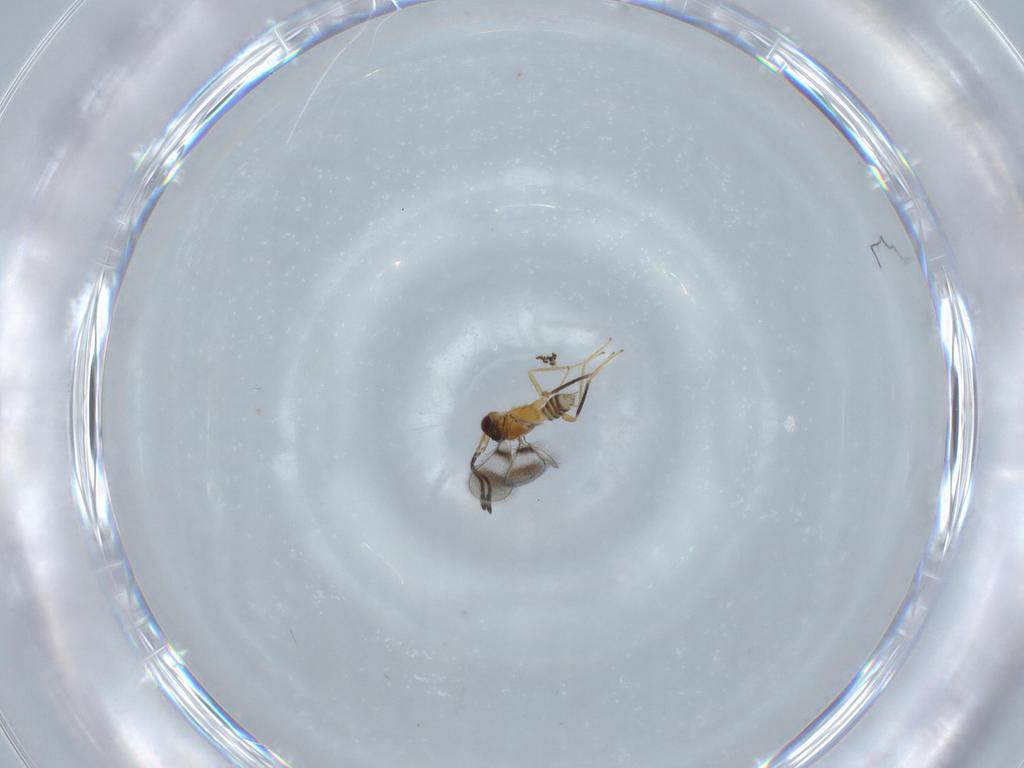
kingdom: Animalia
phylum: Arthropoda
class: Insecta
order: Hymenoptera
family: Mymaridae
